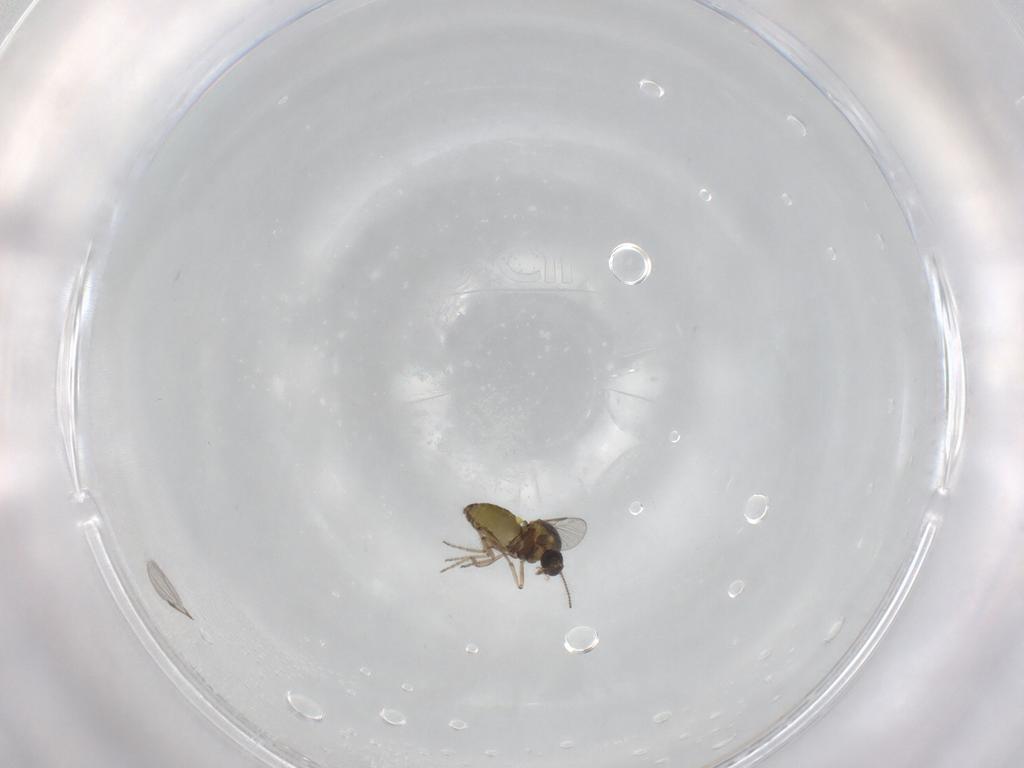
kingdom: Animalia
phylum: Arthropoda
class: Insecta
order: Diptera
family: Ceratopogonidae
